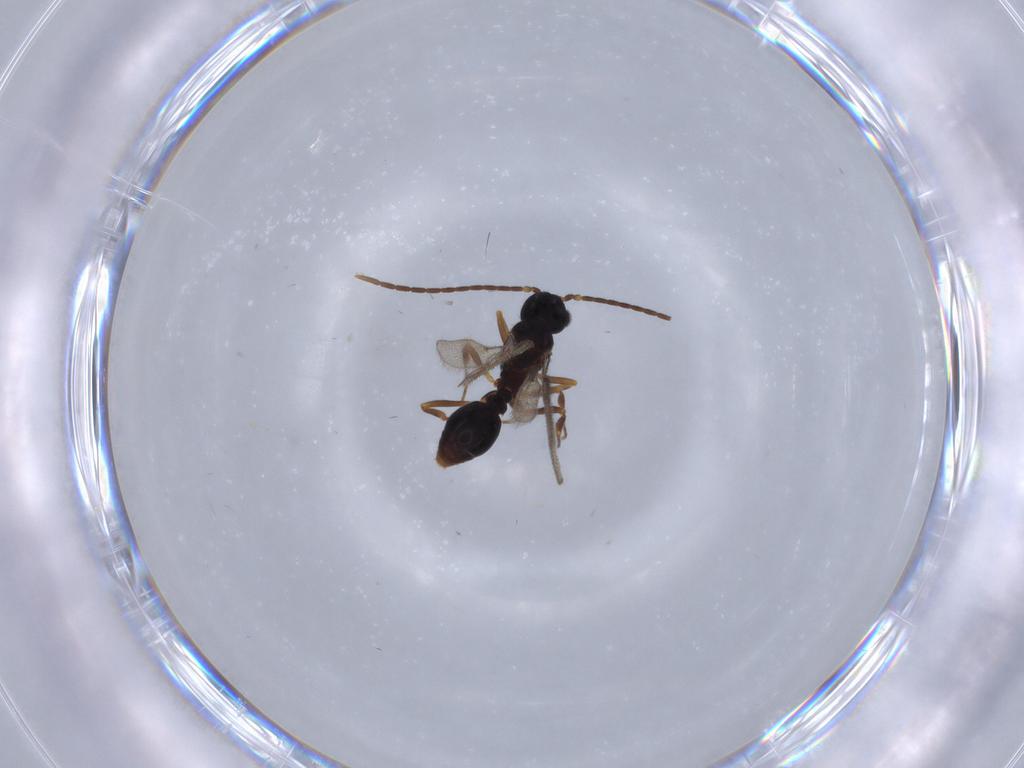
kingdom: Animalia
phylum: Arthropoda
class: Insecta
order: Hymenoptera
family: Formicidae
